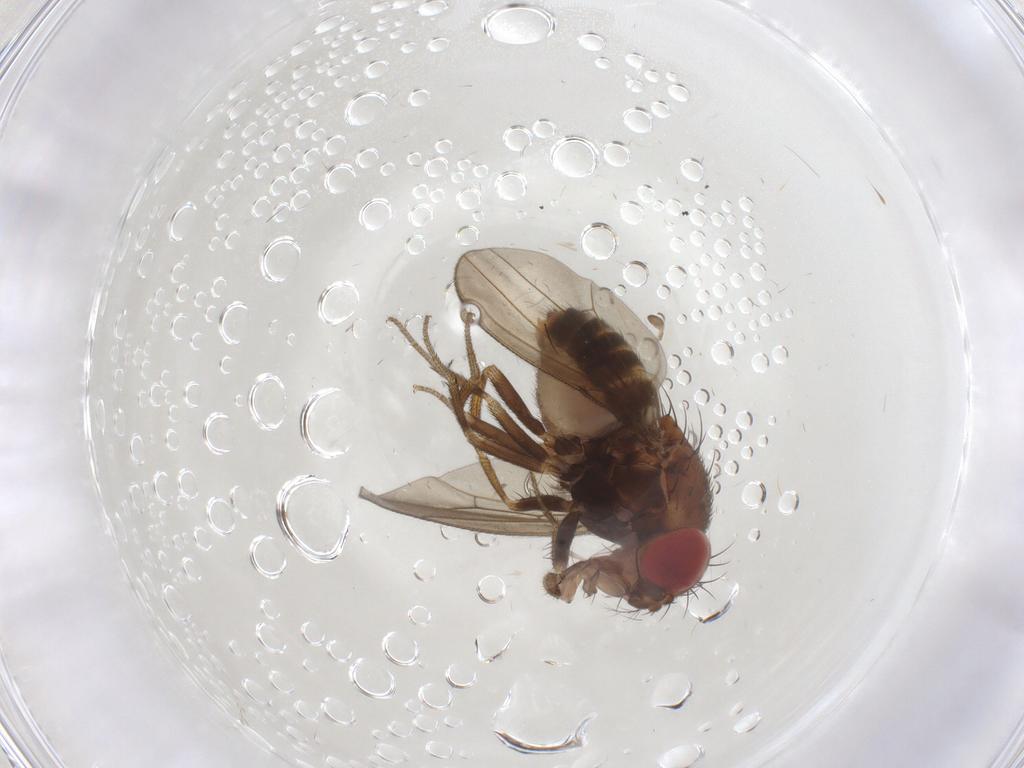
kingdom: Animalia
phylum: Arthropoda
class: Insecta
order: Diptera
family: Drosophilidae
